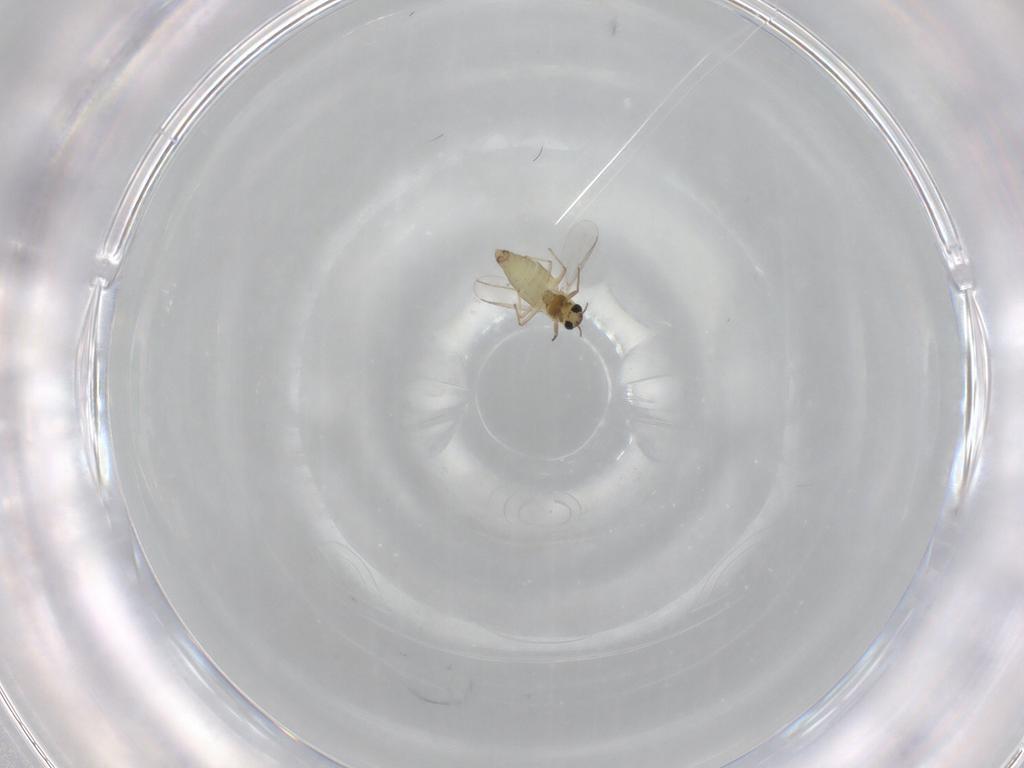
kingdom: Animalia
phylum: Arthropoda
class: Insecta
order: Diptera
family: Chironomidae
